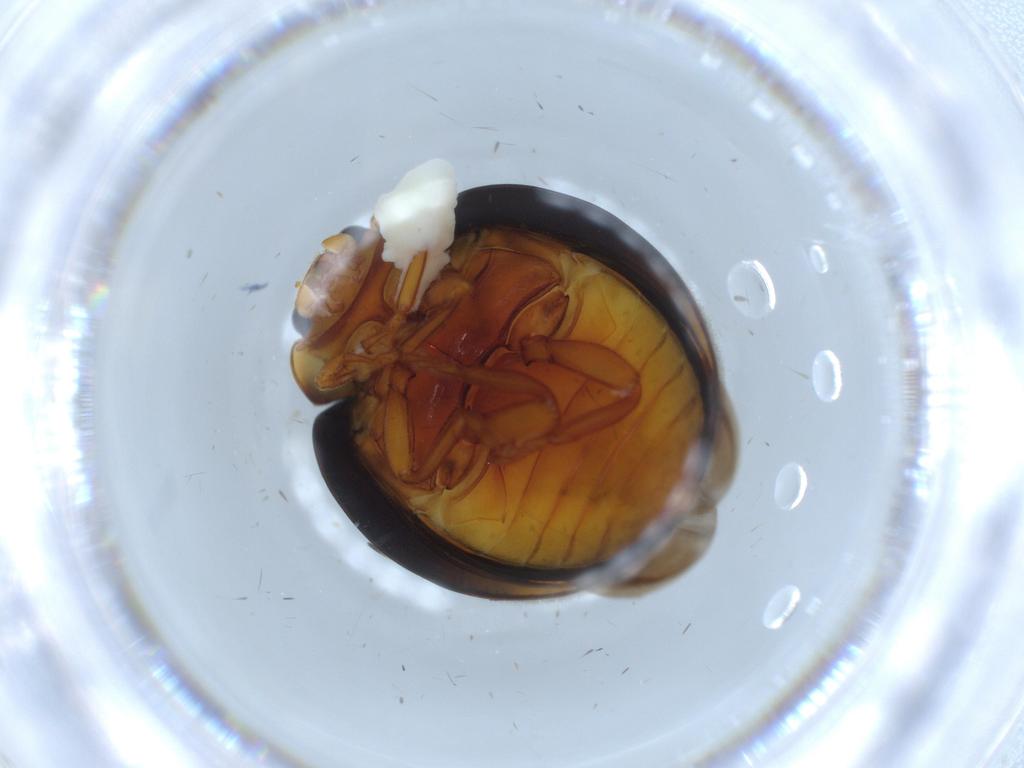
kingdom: Animalia
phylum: Arthropoda
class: Insecta
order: Coleoptera
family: Coccinellidae
